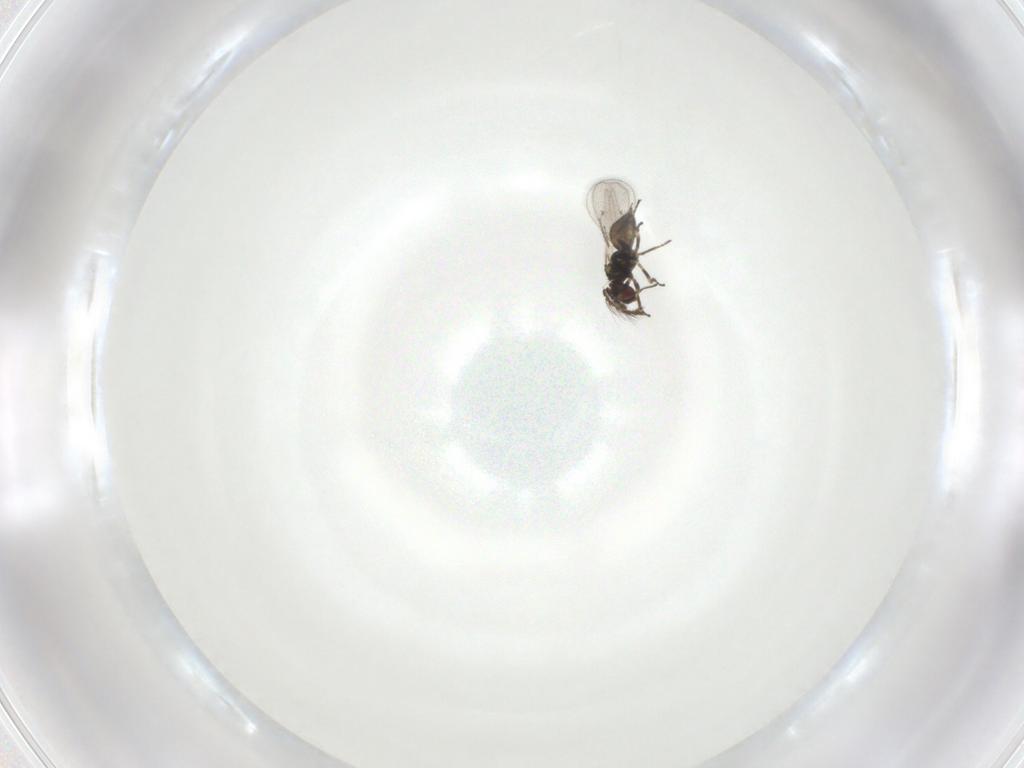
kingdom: Animalia
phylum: Arthropoda
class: Insecta
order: Hymenoptera
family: Eulophidae
